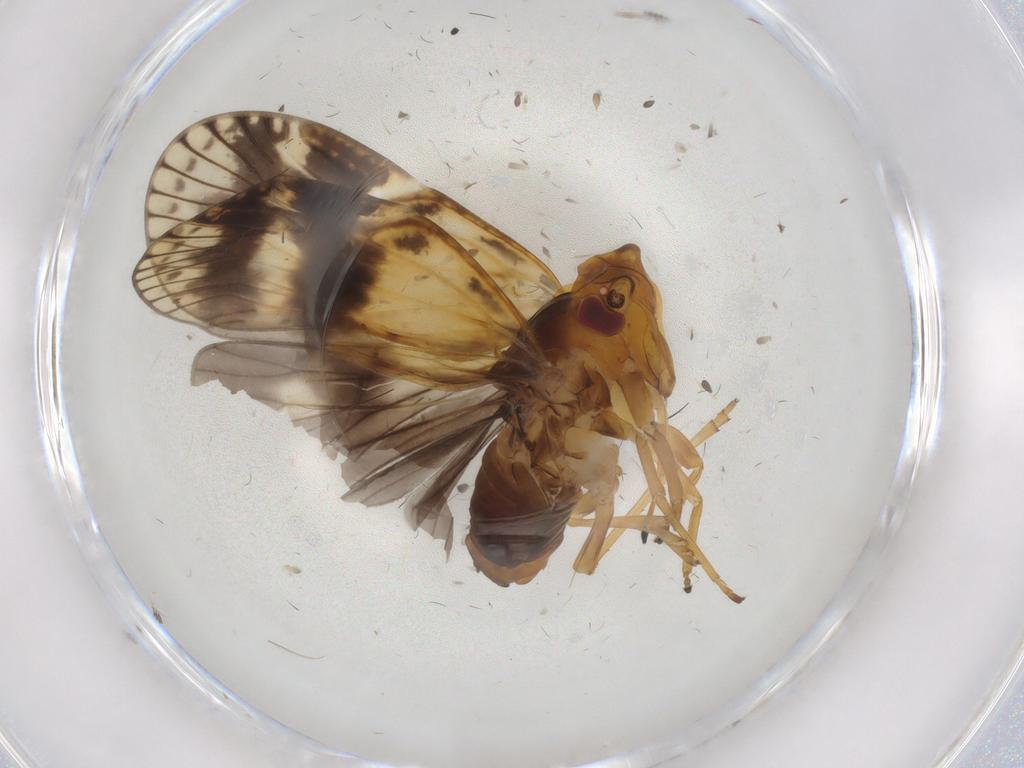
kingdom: Animalia
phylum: Arthropoda
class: Insecta
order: Hemiptera
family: Cixiidae
